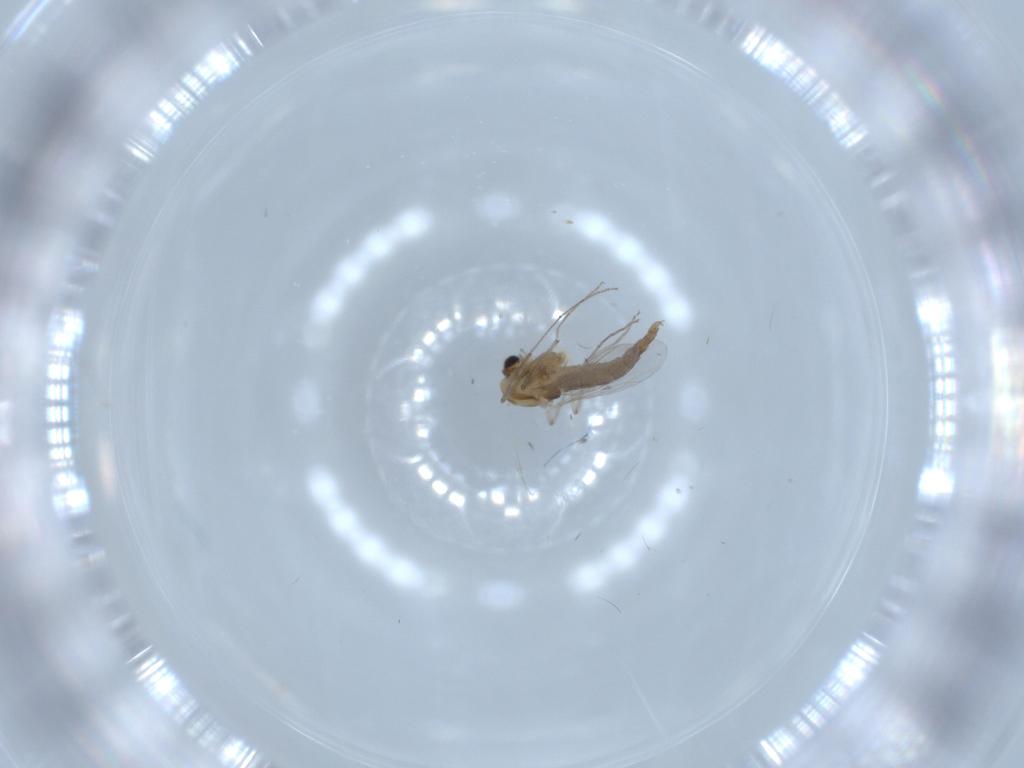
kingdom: Animalia
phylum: Arthropoda
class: Insecta
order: Diptera
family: Chironomidae
